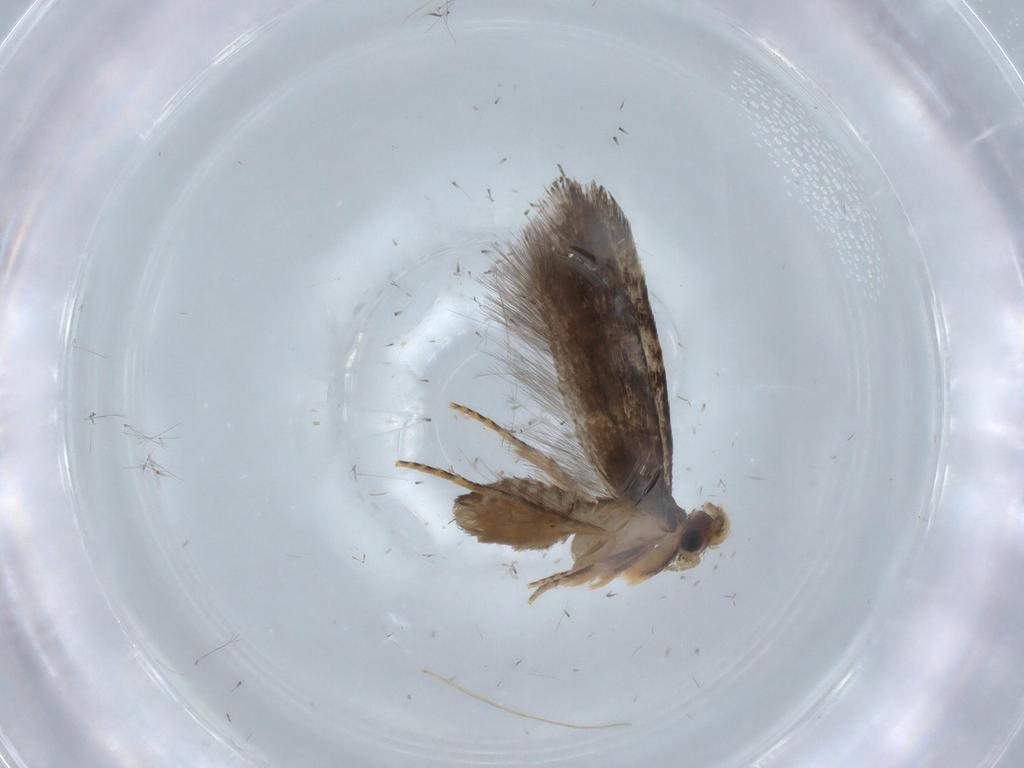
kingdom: Animalia
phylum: Arthropoda
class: Insecta
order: Lepidoptera
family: Tineidae
